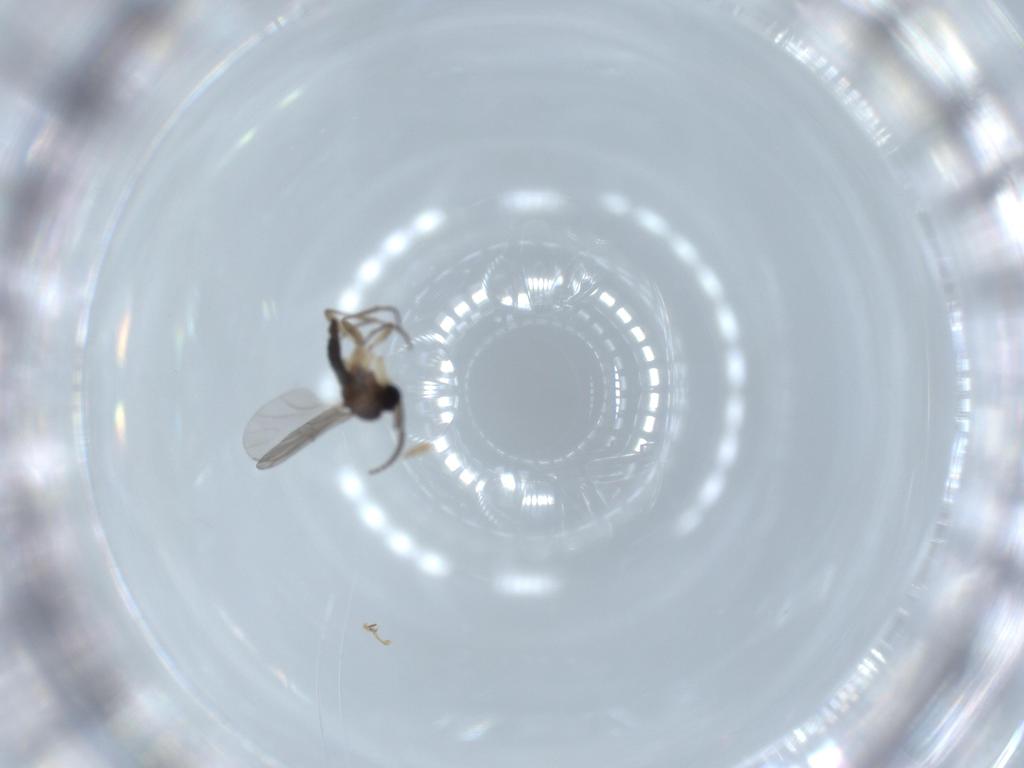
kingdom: Animalia
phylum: Arthropoda
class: Insecta
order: Diptera
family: Sciaridae
